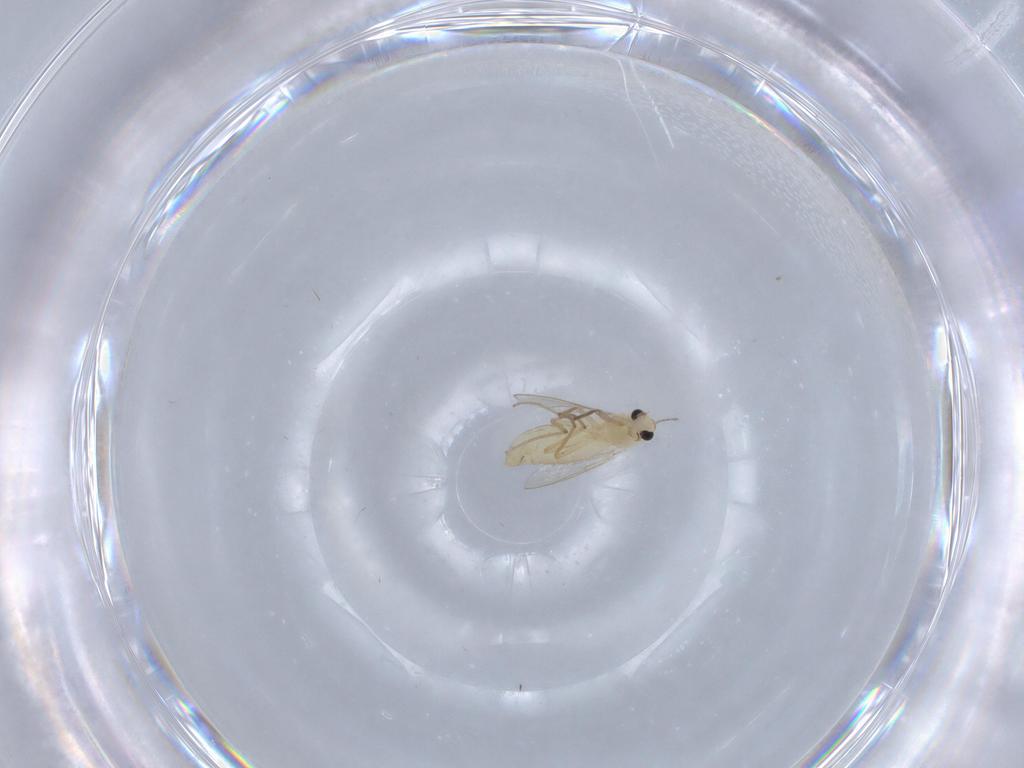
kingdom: Animalia
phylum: Arthropoda
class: Insecta
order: Diptera
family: Chironomidae
